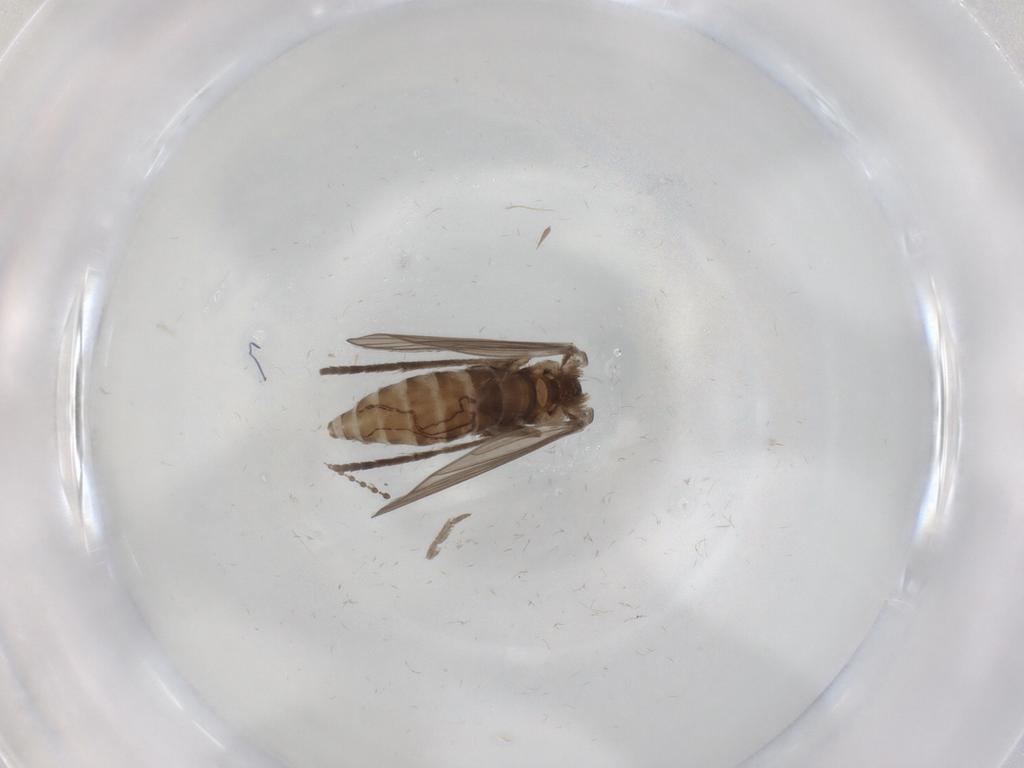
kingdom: Animalia
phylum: Arthropoda
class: Insecta
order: Diptera
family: Psychodidae
